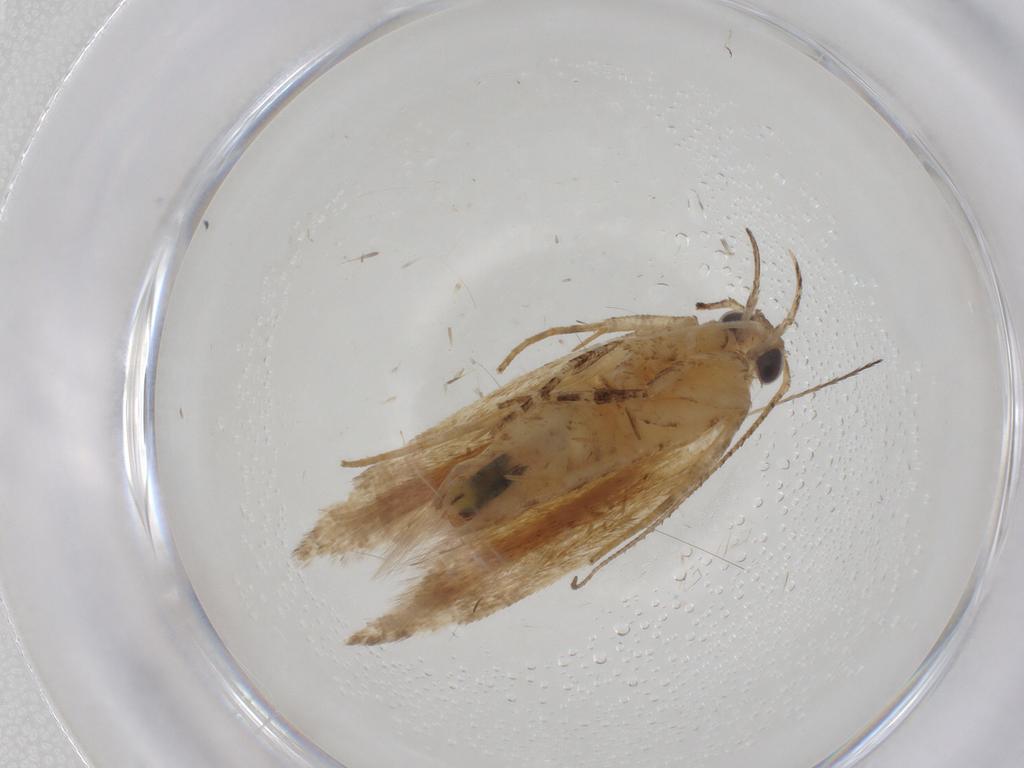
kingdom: Animalia
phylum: Arthropoda
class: Insecta
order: Lepidoptera
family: Gelechiidae
